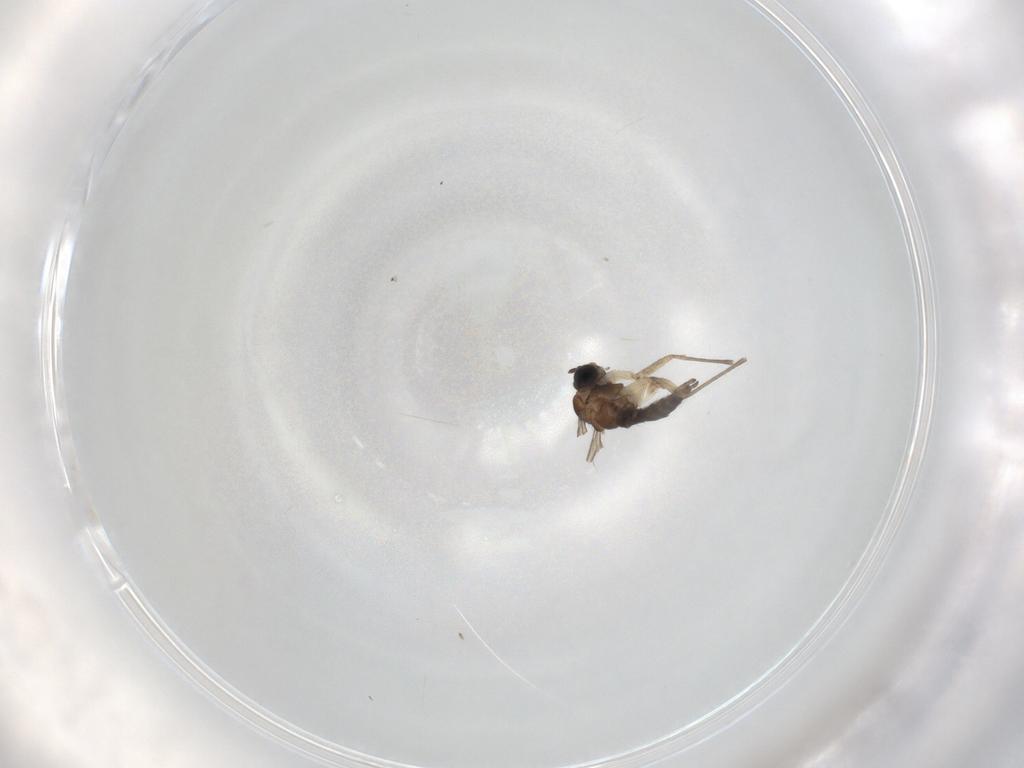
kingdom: Animalia
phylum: Arthropoda
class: Insecta
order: Diptera
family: Sciaridae
